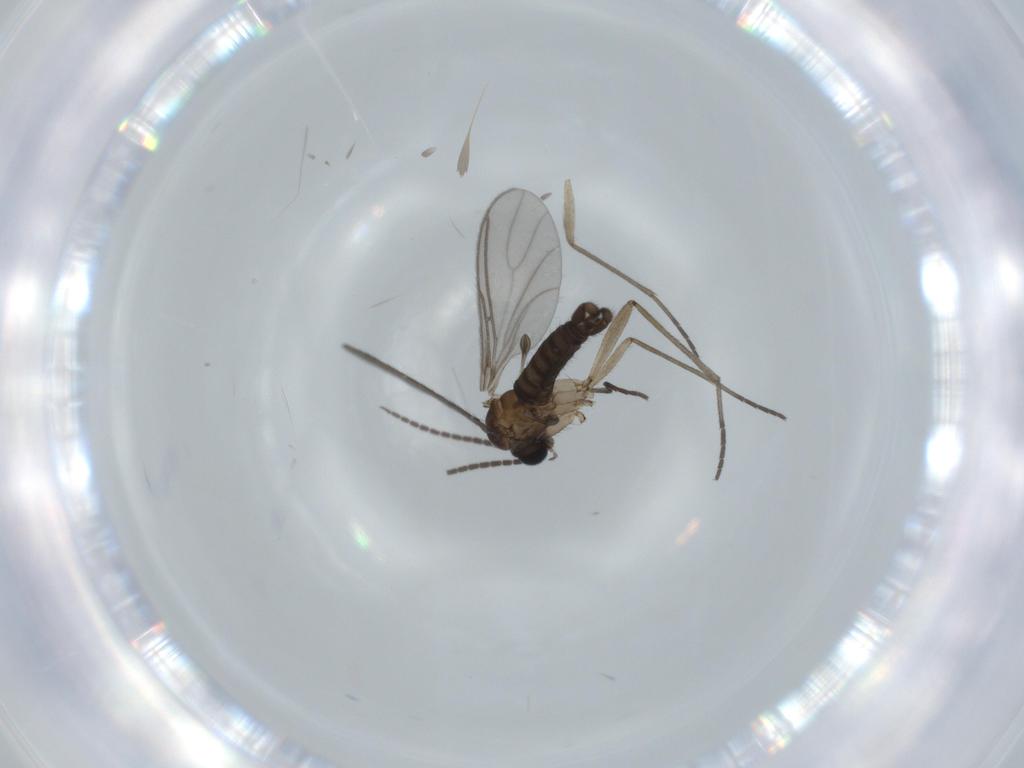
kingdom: Animalia
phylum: Arthropoda
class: Insecta
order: Diptera
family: Sciaridae
